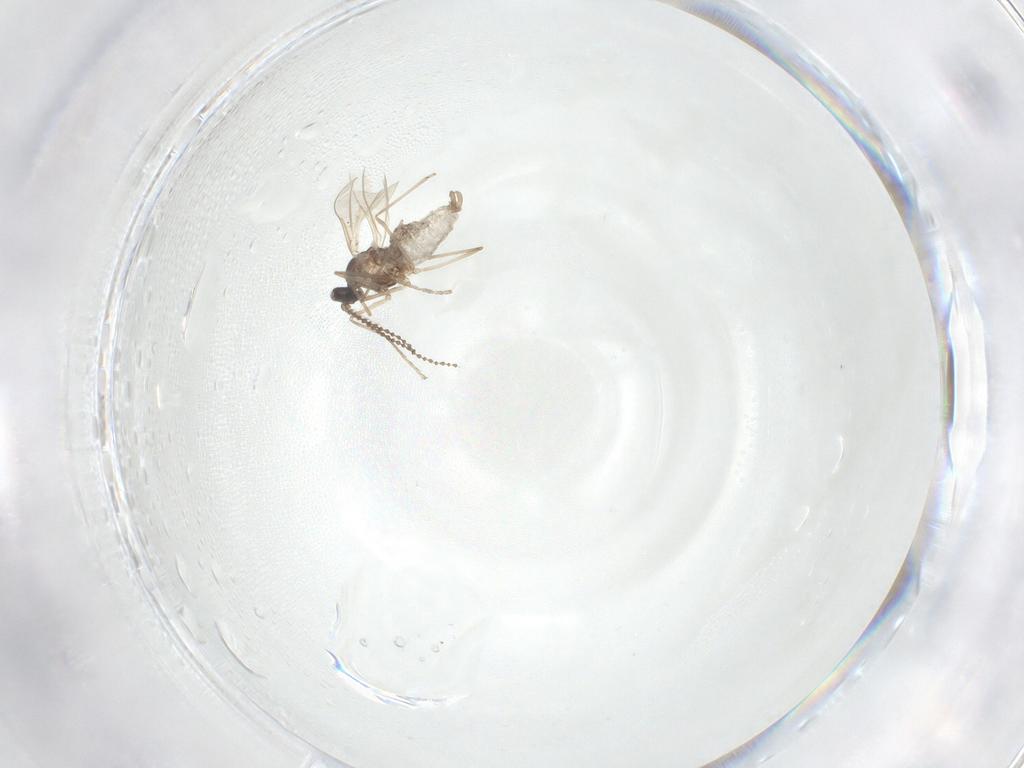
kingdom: Animalia
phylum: Arthropoda
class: Insecta
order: Diptera
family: Cecidomyiidae
